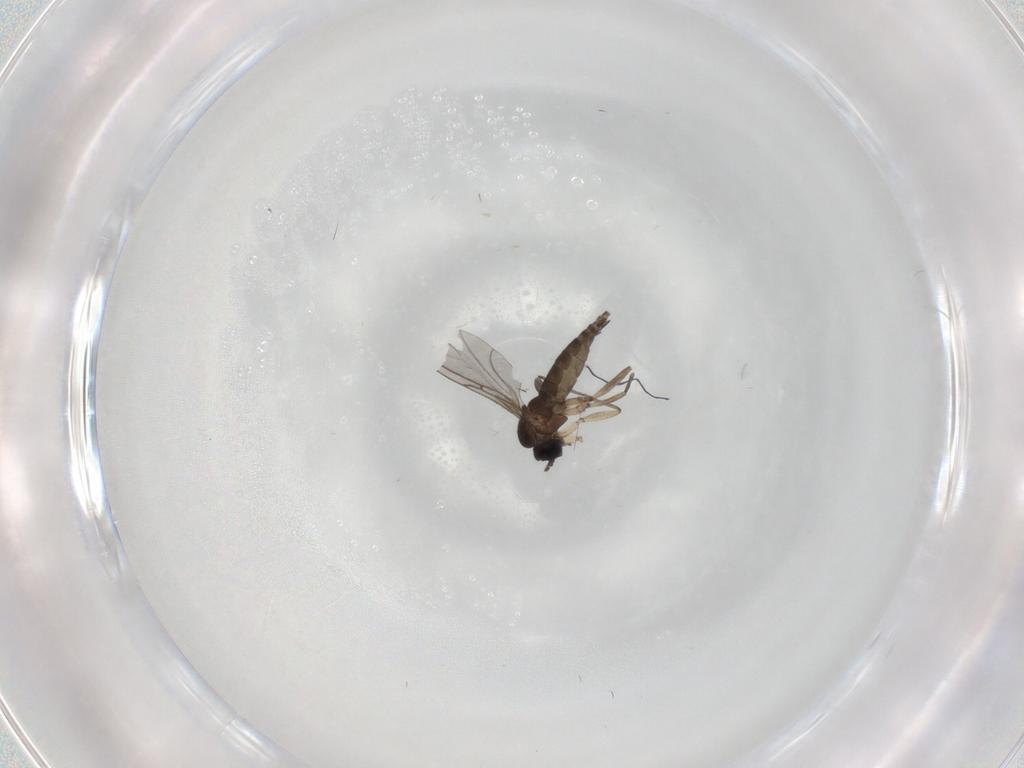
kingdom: Animalia
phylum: Arthropoda
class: Insecta
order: Diptera
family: Sciaridae
